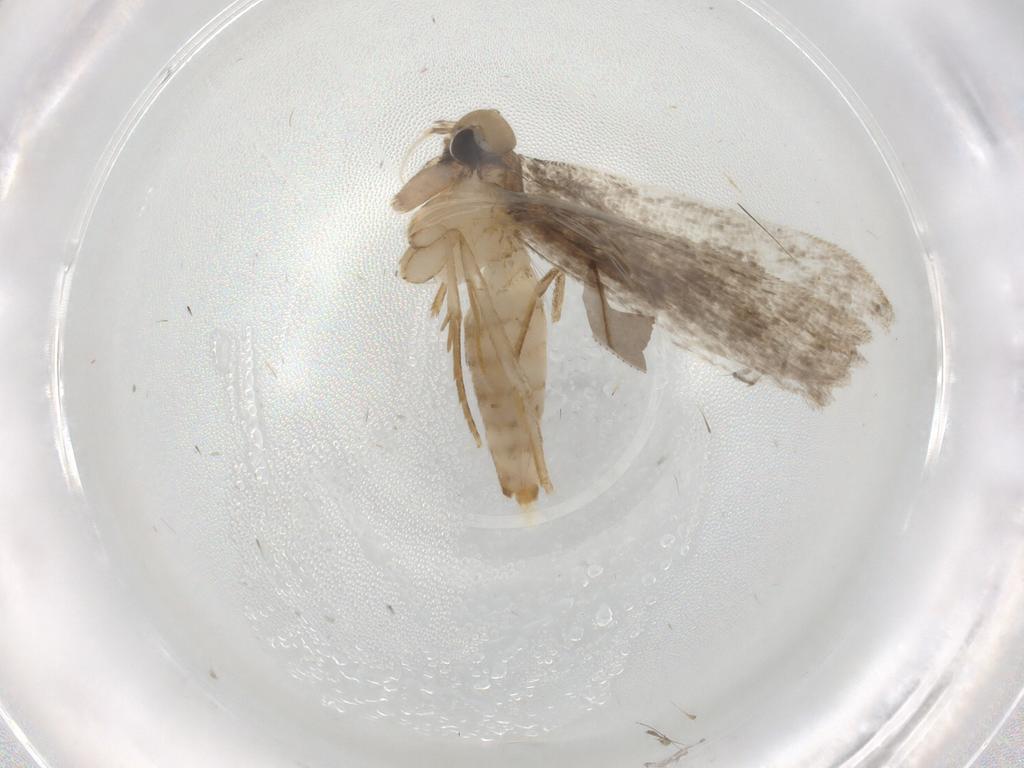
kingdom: Animalia
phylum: Arthropoda
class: Insecta
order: Lepidoptera
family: Tineidae
